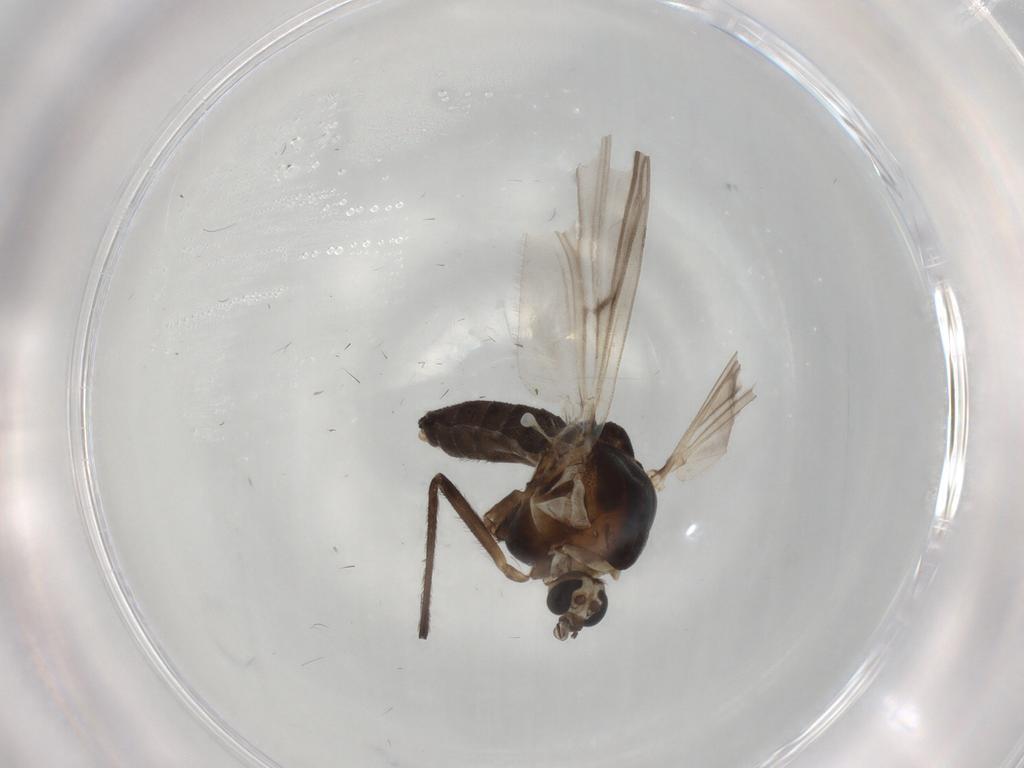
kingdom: Animalia
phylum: Arthropoda
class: Insecta
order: Diptera
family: Chironomidae
